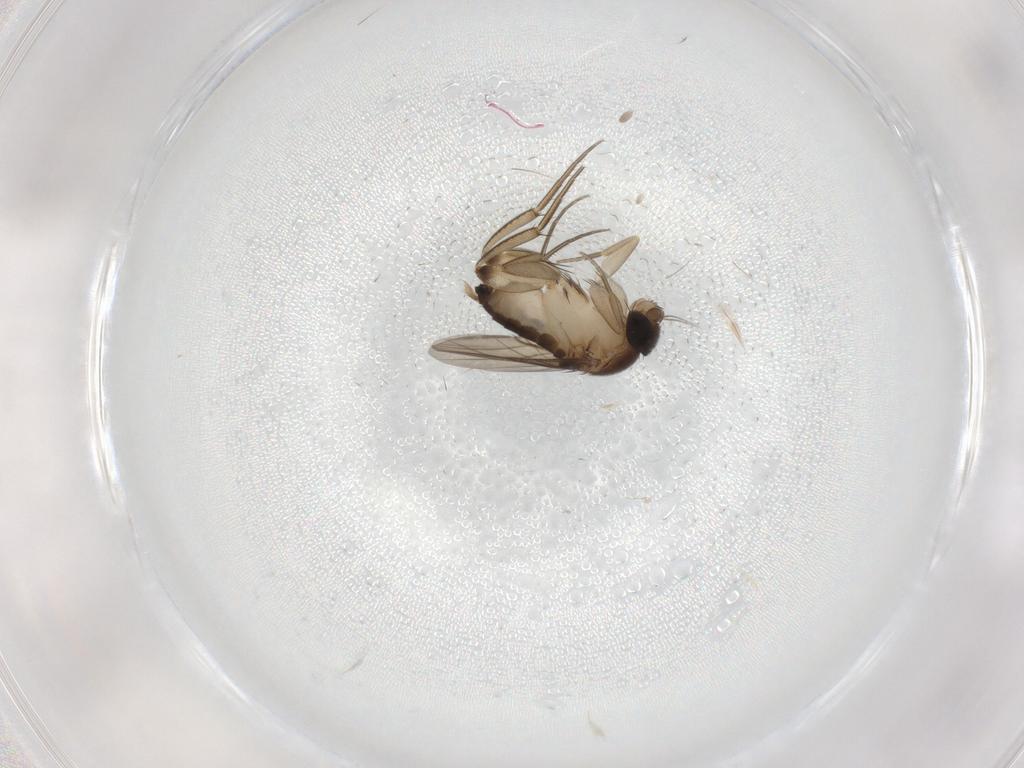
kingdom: Animalia
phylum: Arthropoda
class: Insecta
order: Diptera
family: Phoridae
